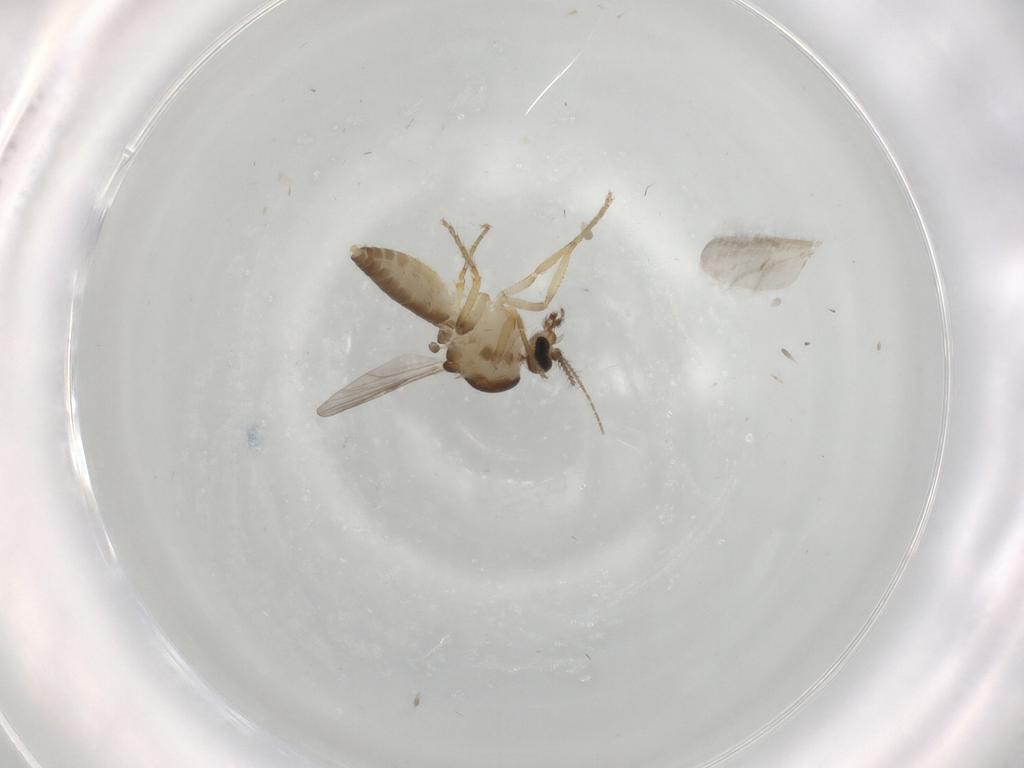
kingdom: Animalia
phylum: Arthropoda
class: Insecta
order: Diptera
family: Ceratopogonidae
